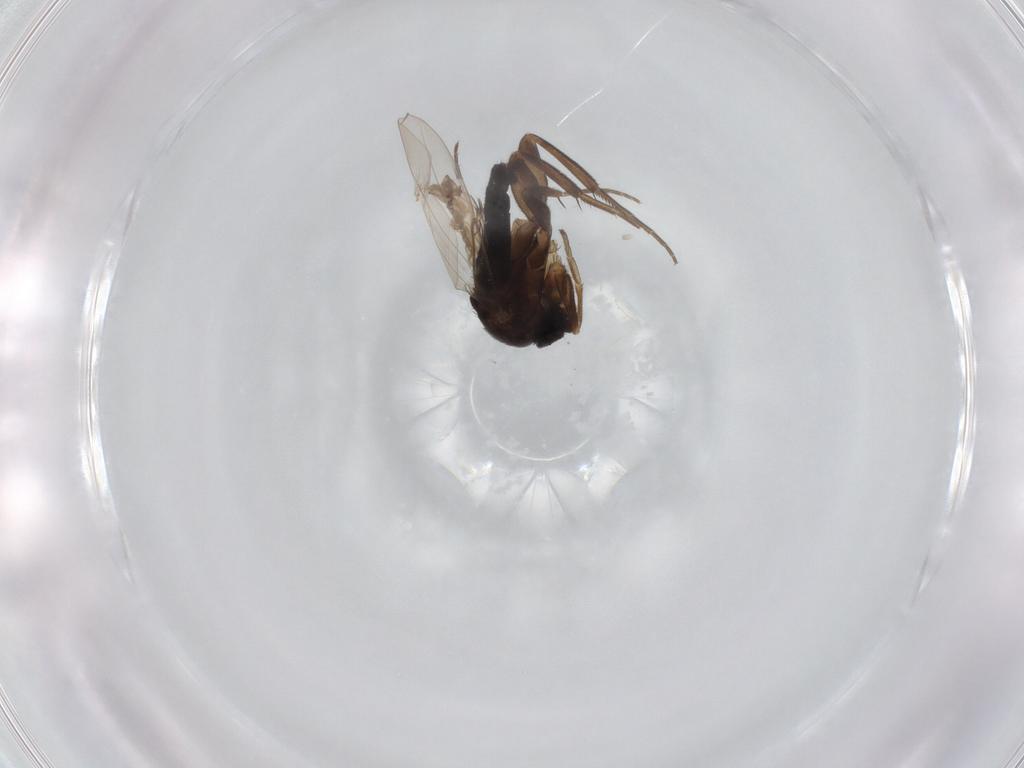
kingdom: Animalia
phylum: Arthropoda
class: Insecta
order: Diptera
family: Phoridae
